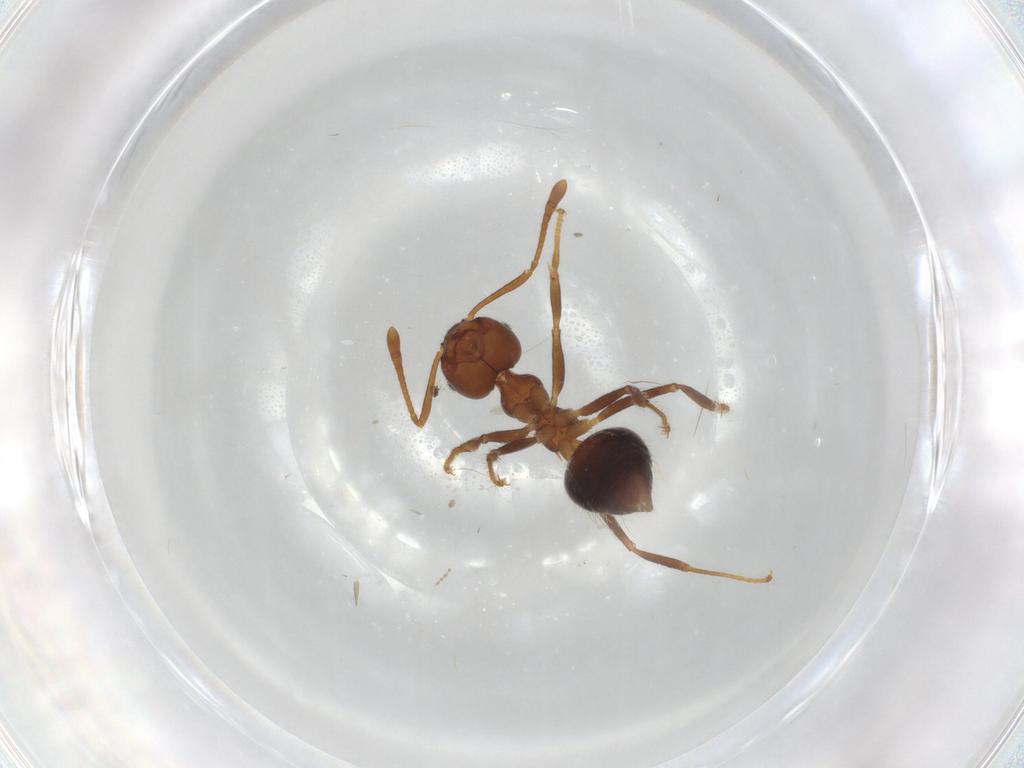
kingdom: Animalia
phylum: Arthropoda
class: Insecta
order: Hymenoptera
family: Formicidae
